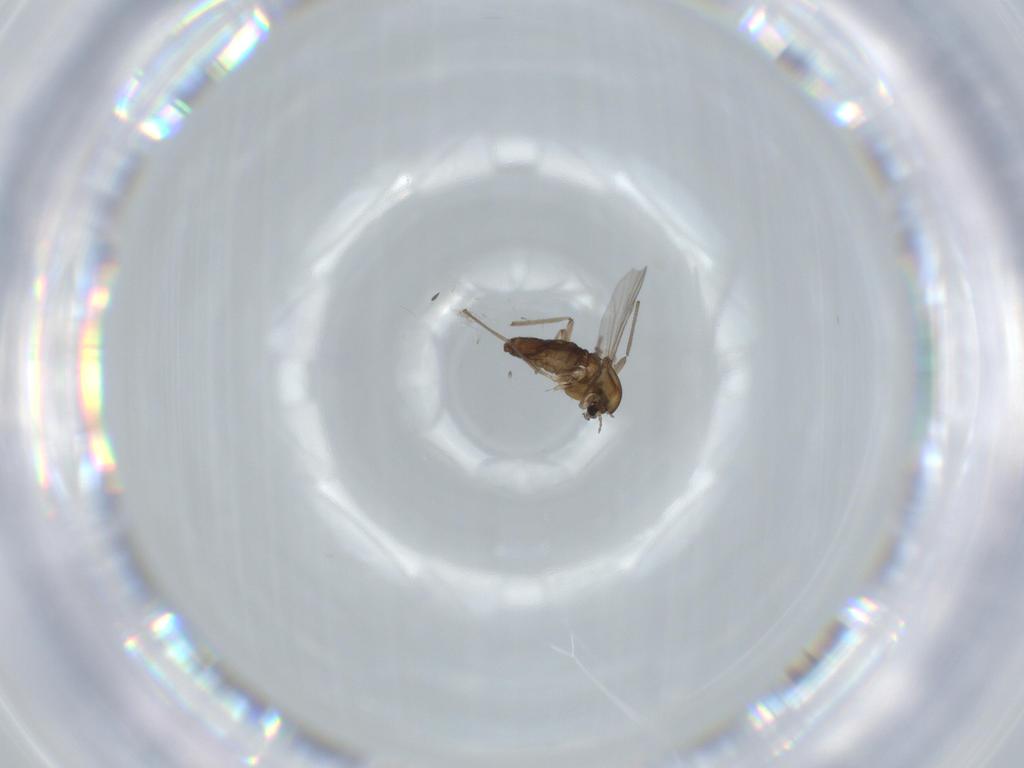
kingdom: Animalia
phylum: Arthropoda
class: Insecta
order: Diptera
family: Chironomidae
